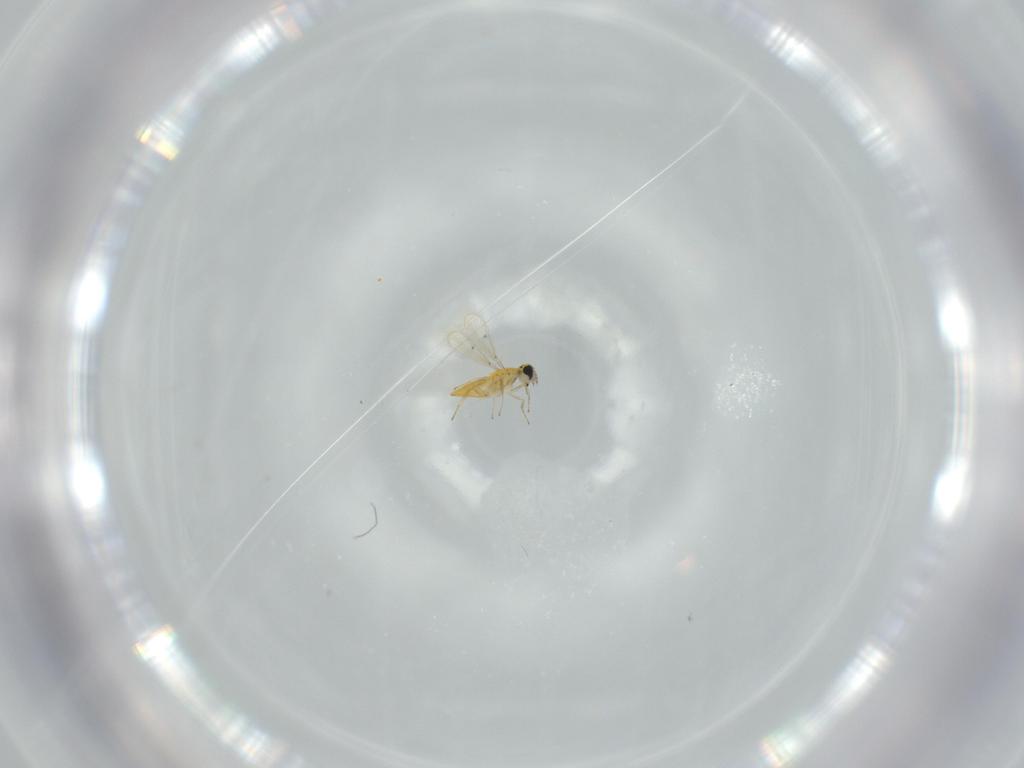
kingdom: Animalia
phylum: Arthropoda
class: Insecta
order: Hymenoptera
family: Trichogrammatidae
